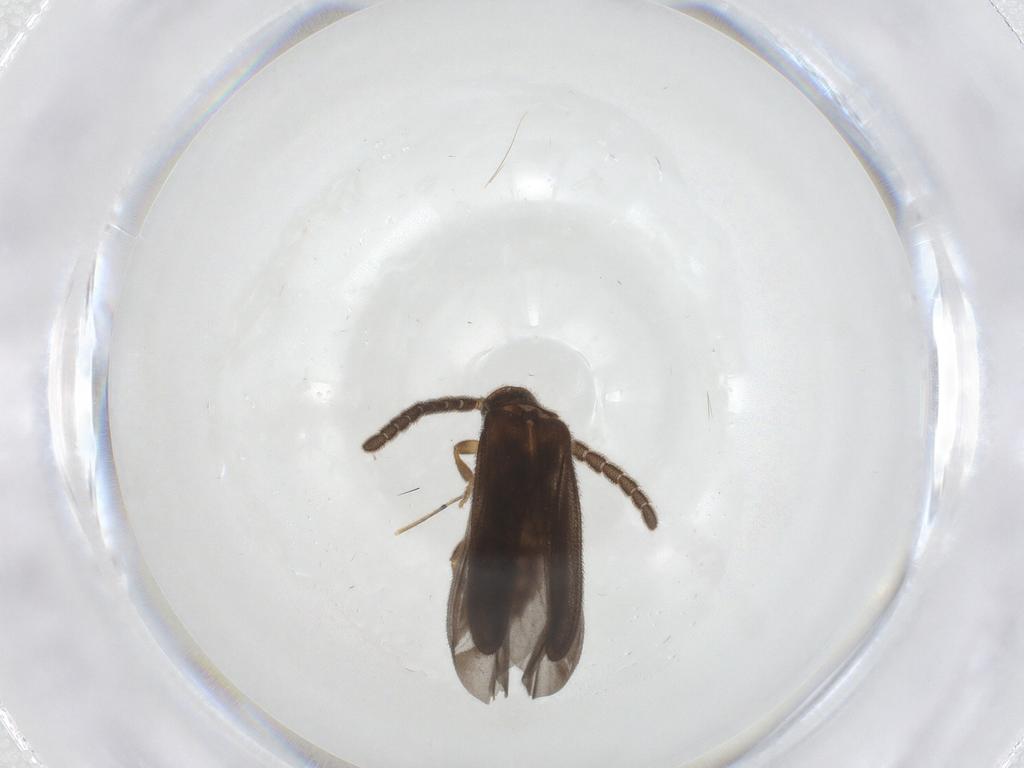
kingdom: Animalia
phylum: Arthropoda
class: Insecta
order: Coleoptera
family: Lycidae
